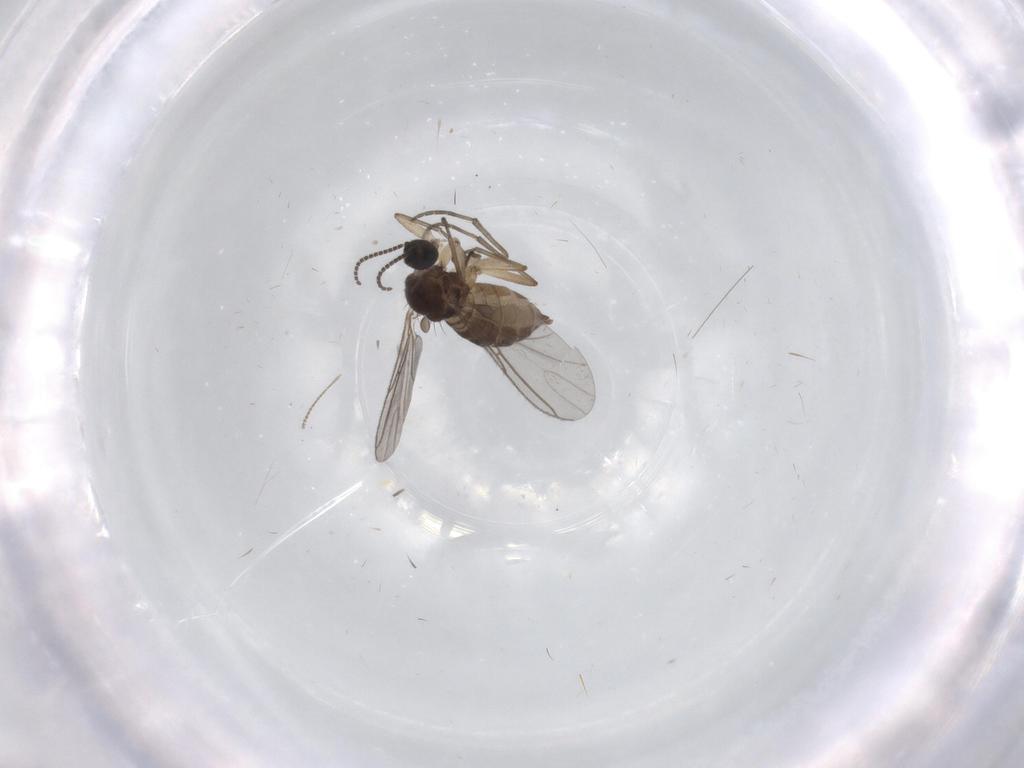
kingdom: Animalia
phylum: Arthropoda
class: Insecta
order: Diptera
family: Sciaridae
